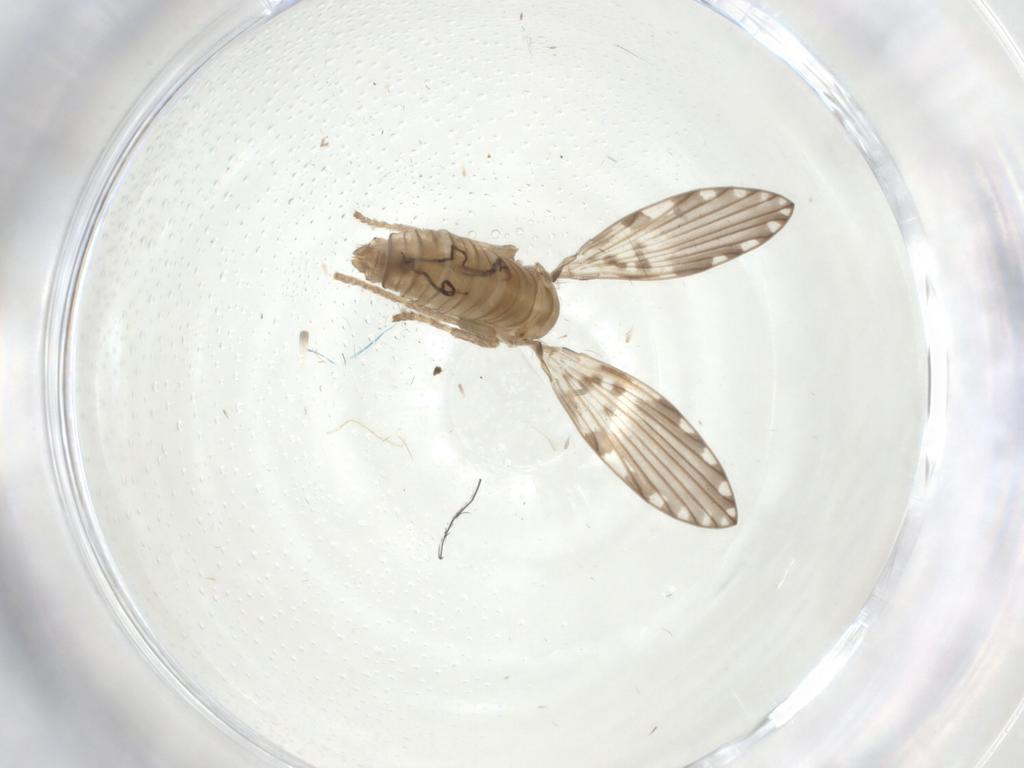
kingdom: Animalia
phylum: Arthropoda
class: Insecta
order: Diptera
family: Psychodidae
